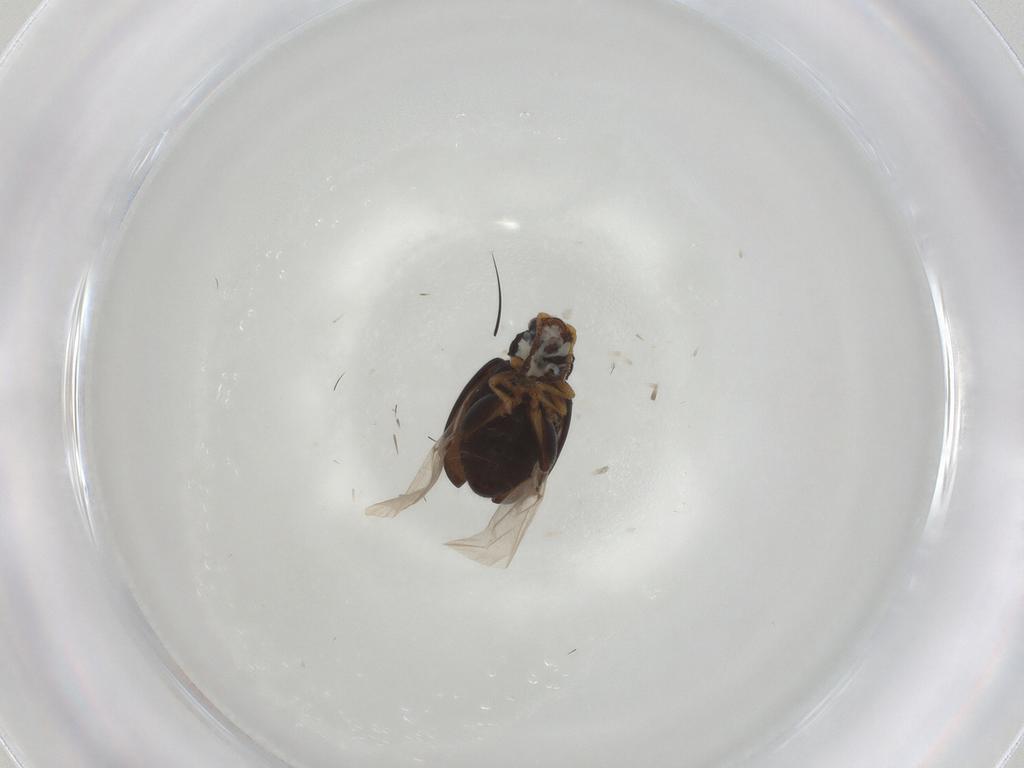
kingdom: Animalia
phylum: Arthropoda
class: Insecta
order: Coleoptera
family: Chrysomelidae
